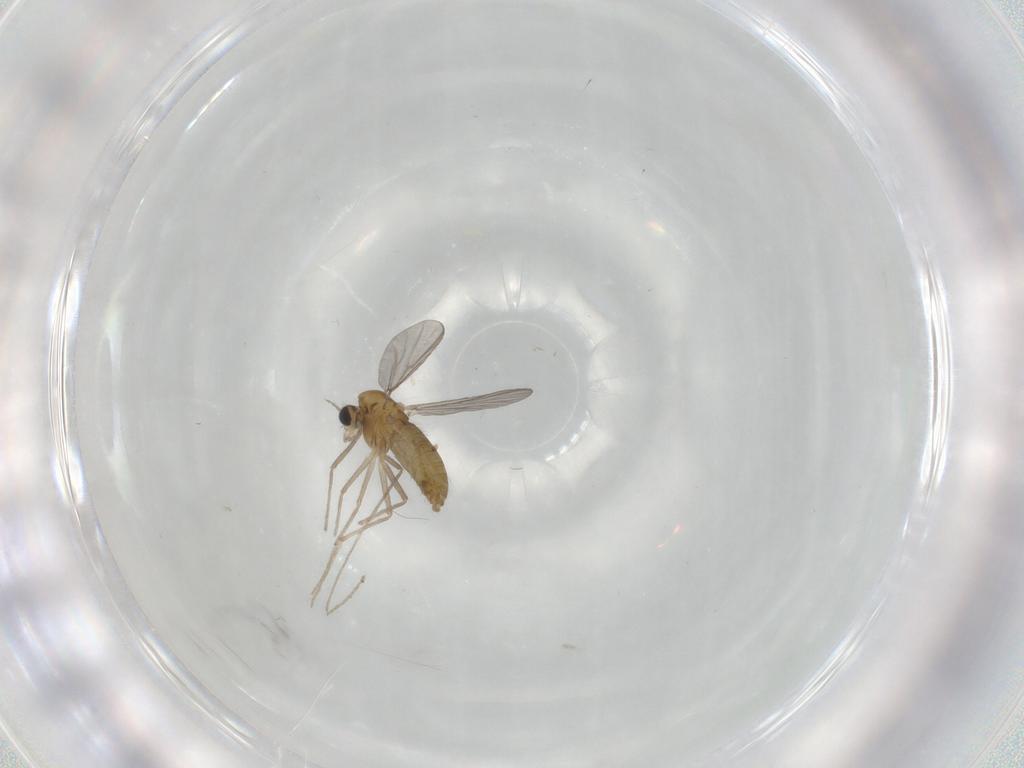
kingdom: Animalia
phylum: Arthropoda
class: Insecta
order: Diptera
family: Chironomidae
